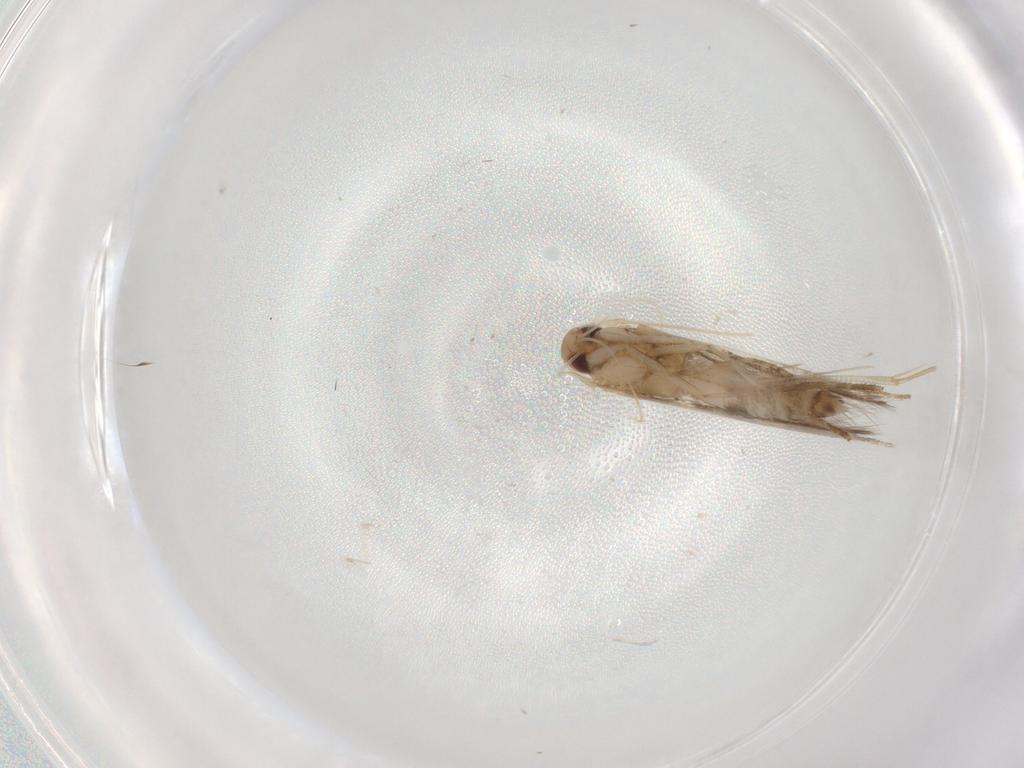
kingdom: Animalia
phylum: Arthropoda
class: Insecta
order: Lepidoptera
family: Cosmopterigidae
